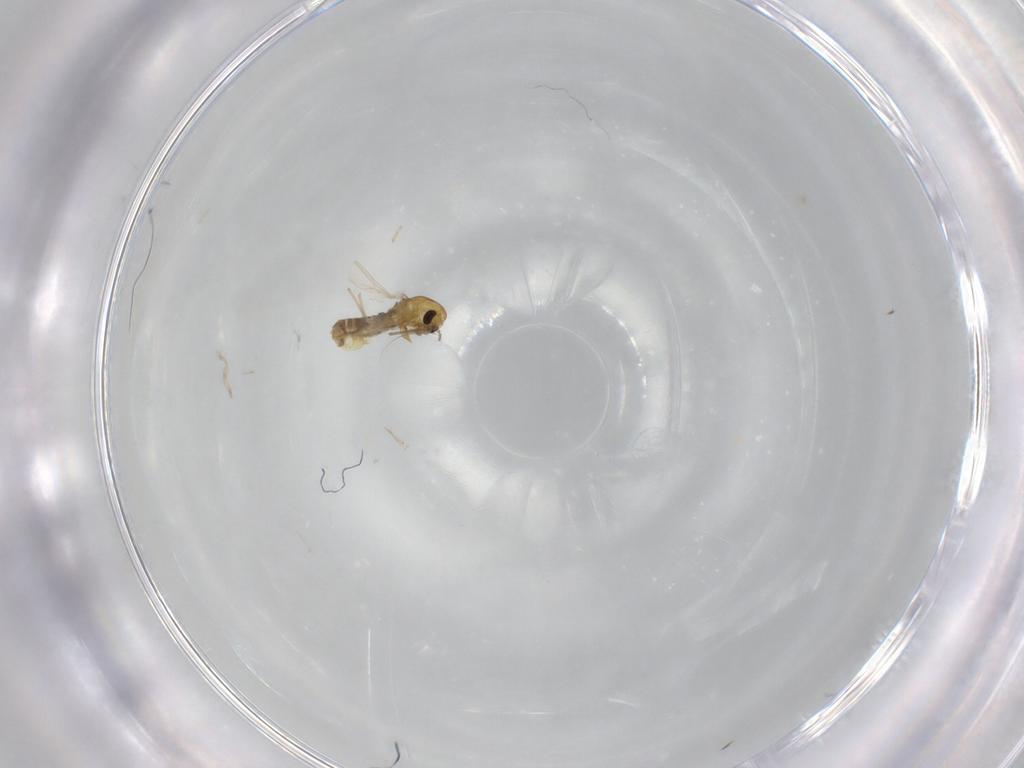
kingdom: Animalia
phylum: Arthropoda
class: Insecta
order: Diptera
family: Chironomidae
